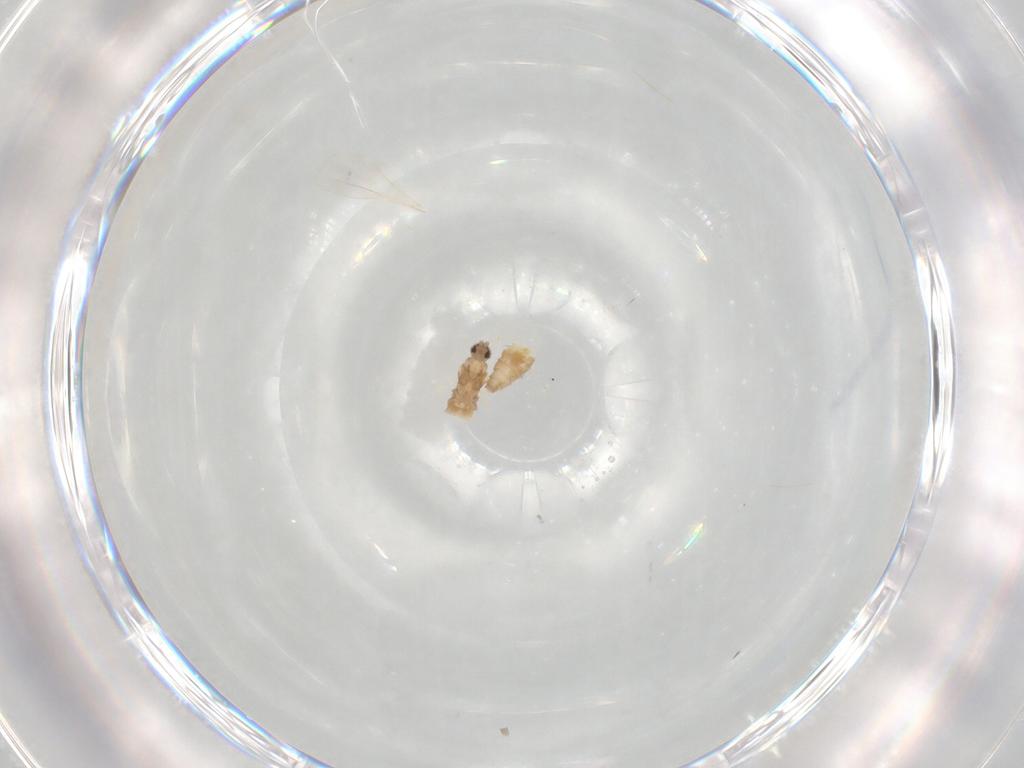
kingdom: Animalia
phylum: Arthropoda
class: Insecta
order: Diptera
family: Cecidomyiidae
